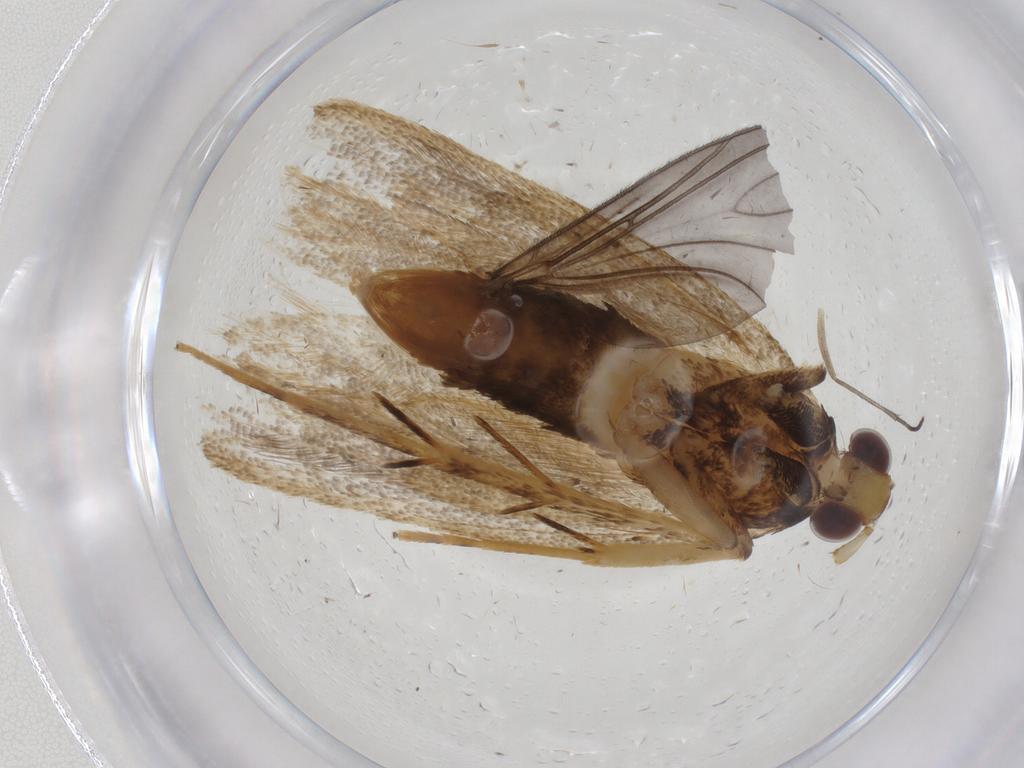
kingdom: Animalia
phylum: Arthropoda
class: Insecta
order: Lepidoptera
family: Lecithoceridae
